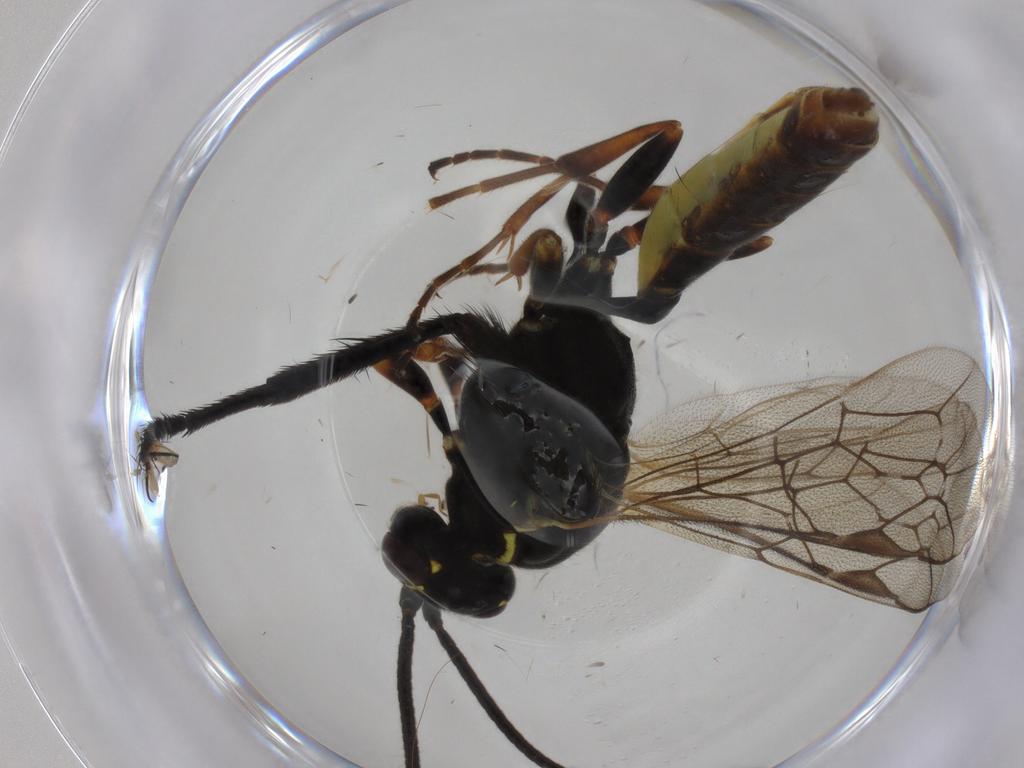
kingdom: Animalia
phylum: Arthropoda
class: Insecta
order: Hymenoptera
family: Ichneumonidae
